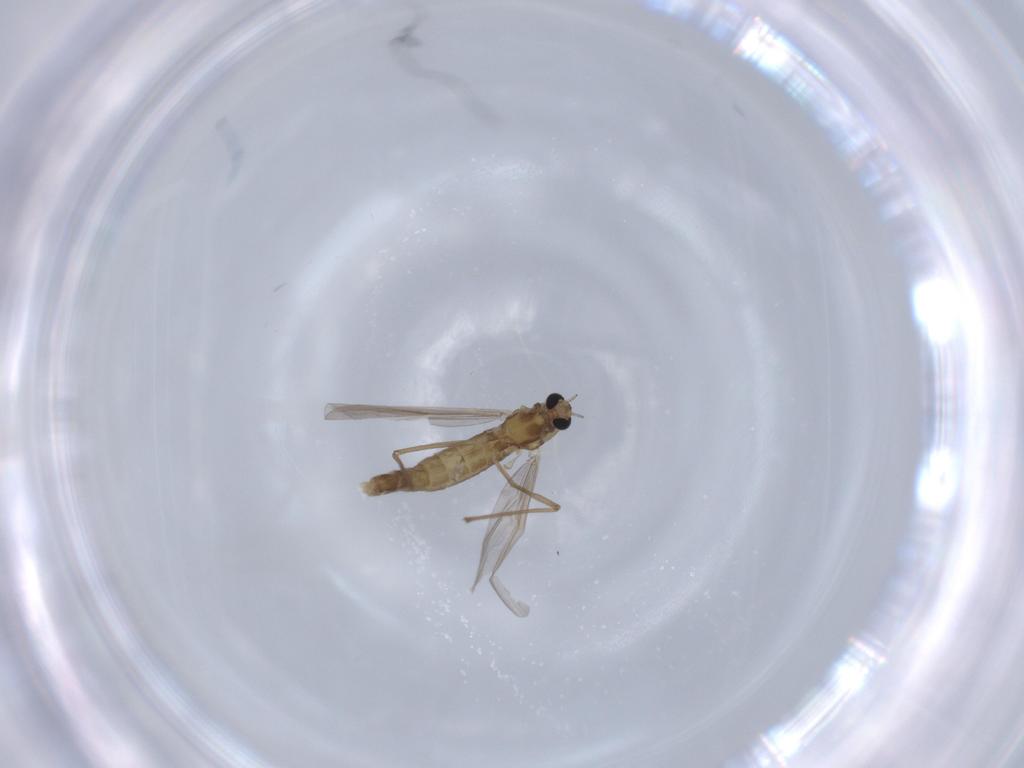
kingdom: Animalia
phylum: Arthropoda
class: Insecta
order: Diptera
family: Chironomidae
